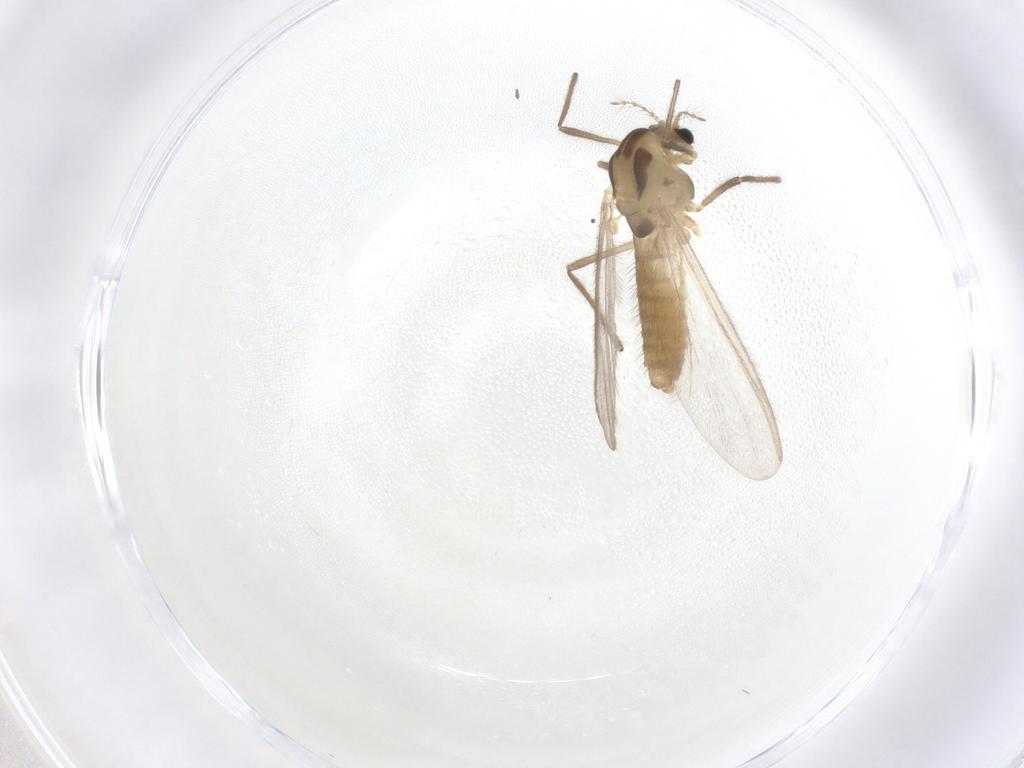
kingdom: Animalia
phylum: Arthropoda
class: Insecta
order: Diptera
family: Chironomidae
